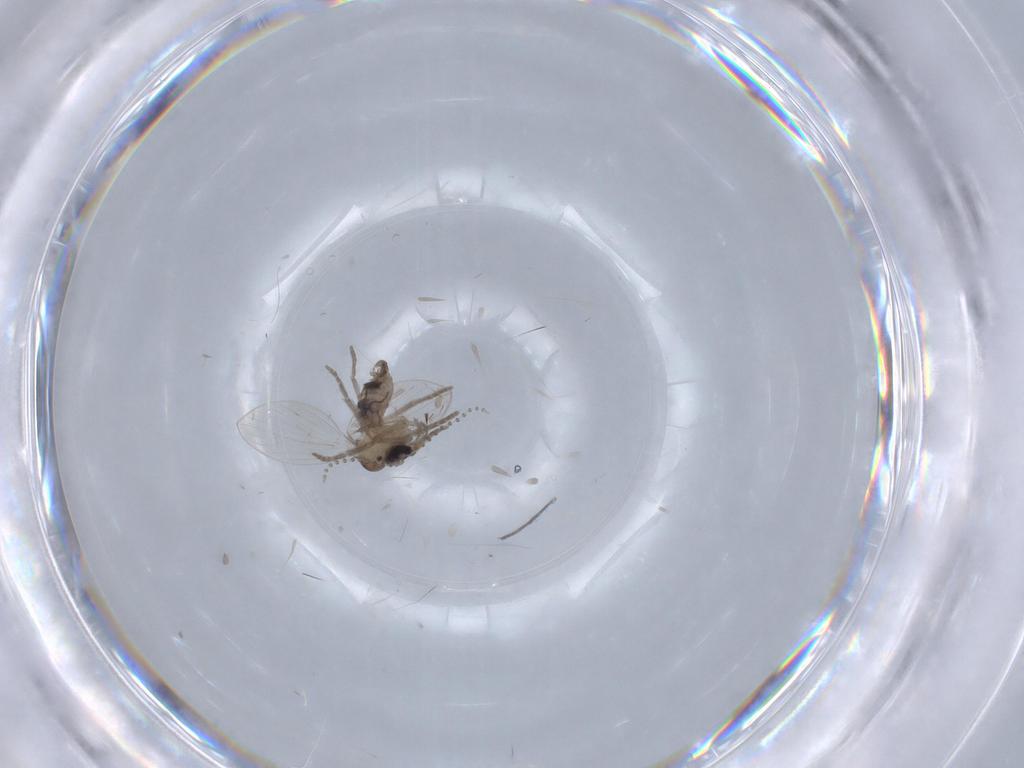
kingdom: Animalia
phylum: Arthropoda
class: Insecta
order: Diptera
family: Psychodidae
